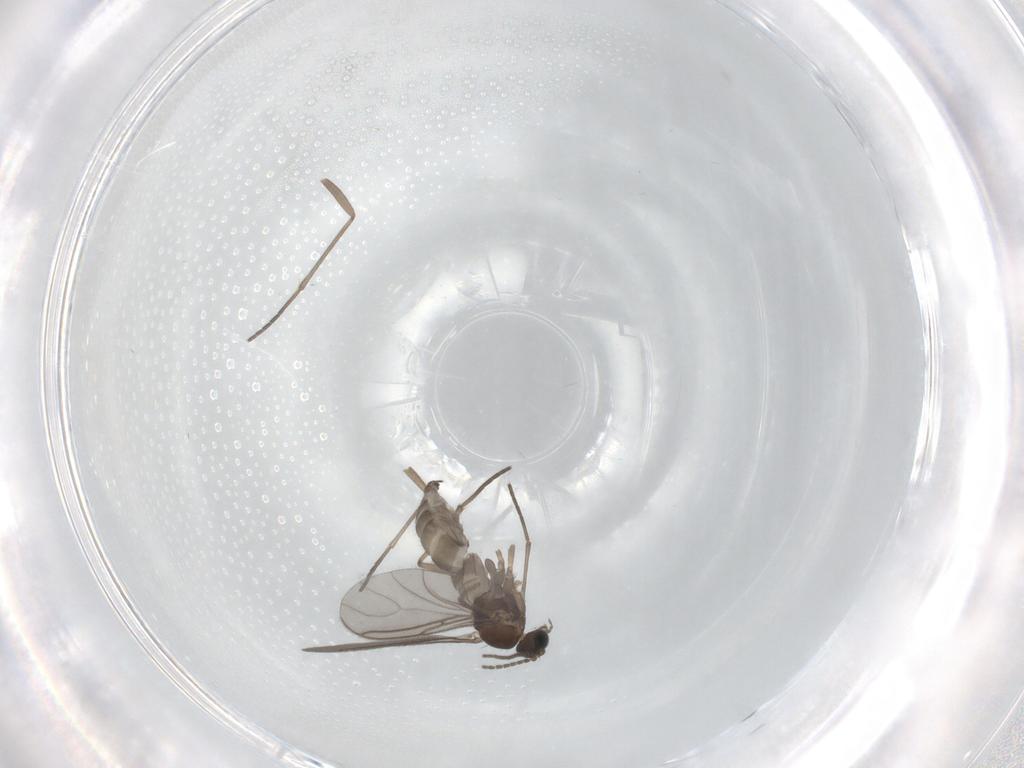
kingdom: Animalia
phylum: Arthropoda
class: Insecta
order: Diptera
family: Sciaridae
